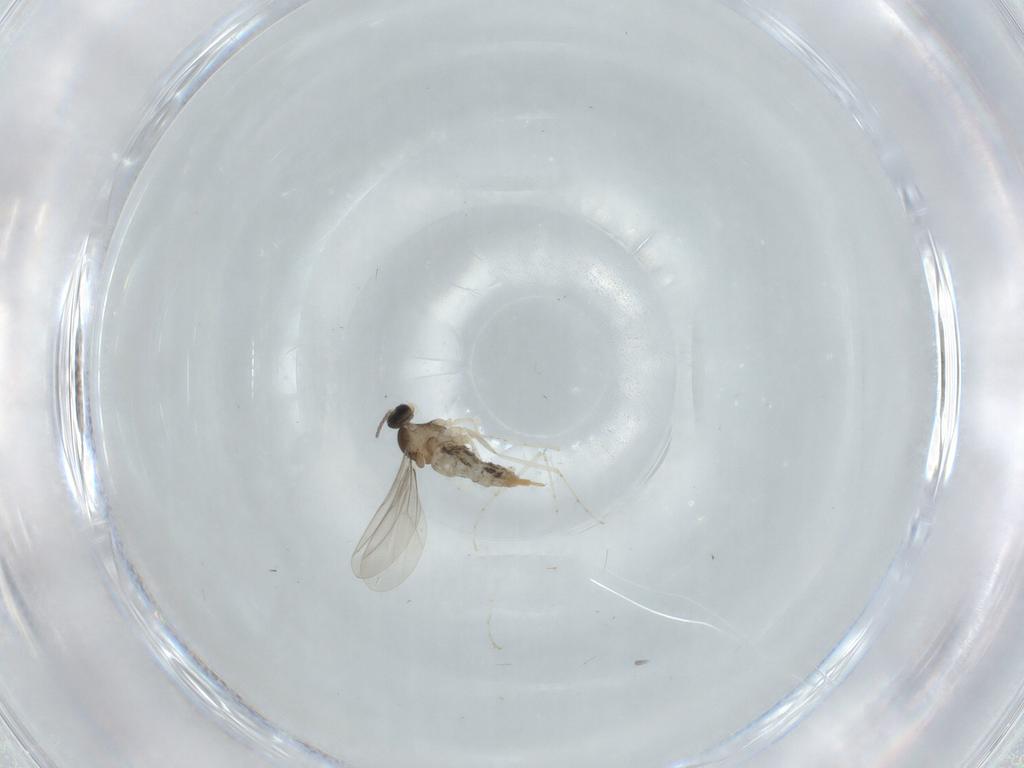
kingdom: Animalia
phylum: Arthropoda
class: Insecta
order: Diptera
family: Cecidomyiidae
